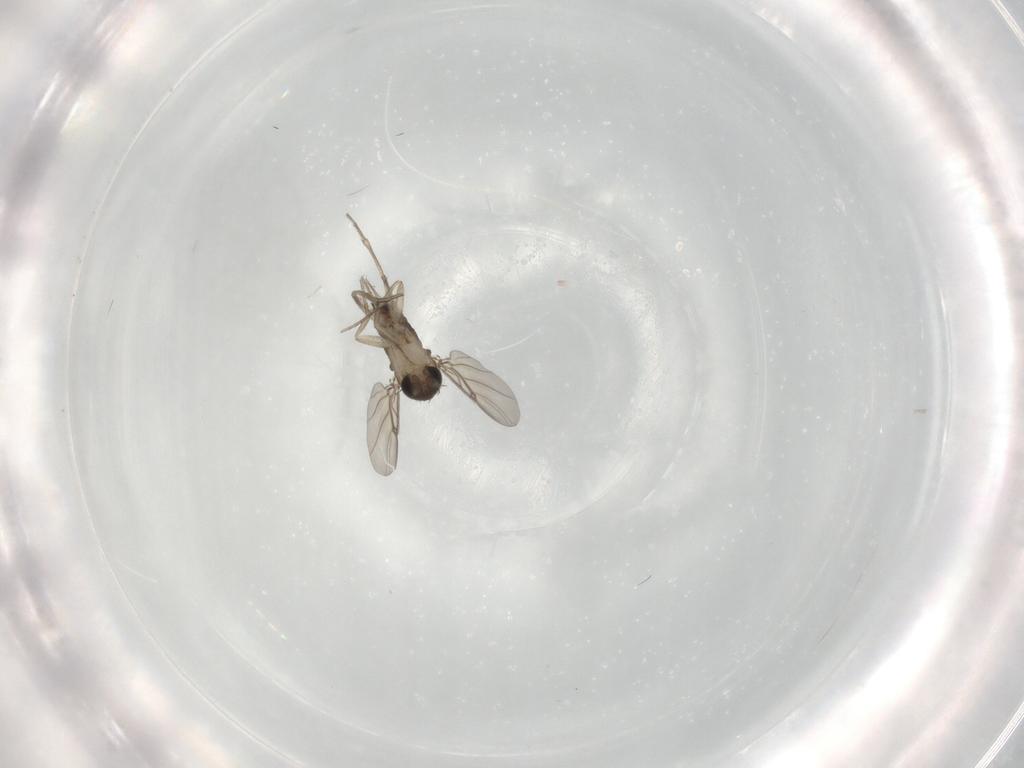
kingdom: Animalia
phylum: Arthropoda
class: Insecta
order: Diptera
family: Phoridae
